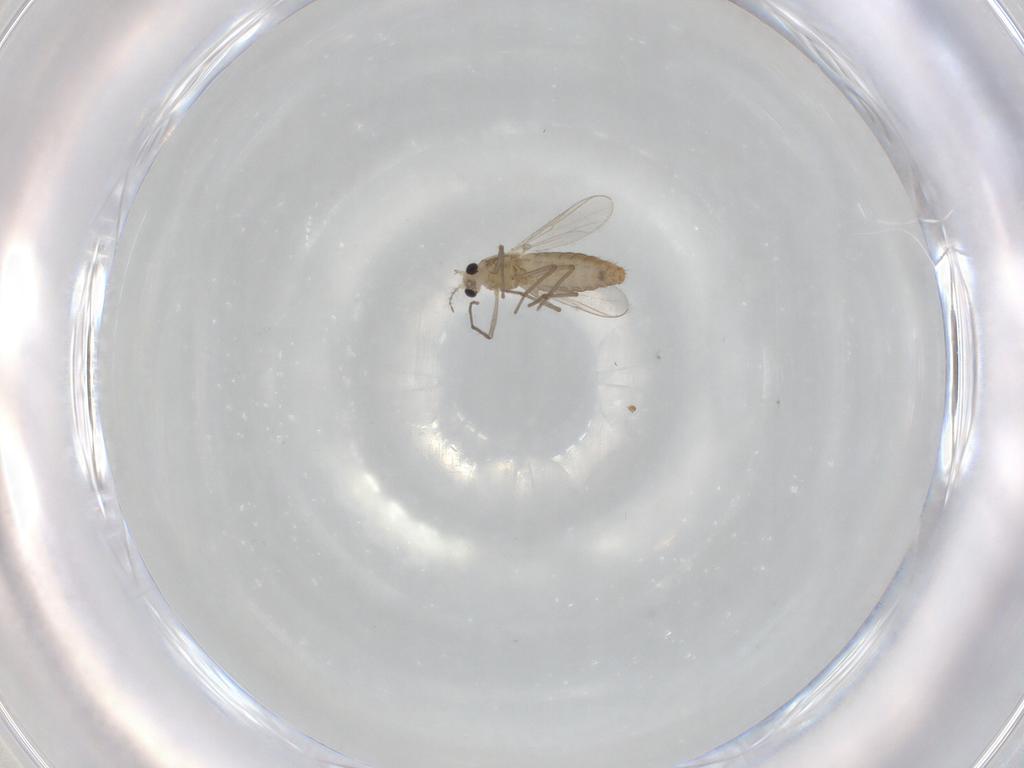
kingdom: Animalia
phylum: Arthropoda
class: Insecta
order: Diptera
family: Chironomidae
